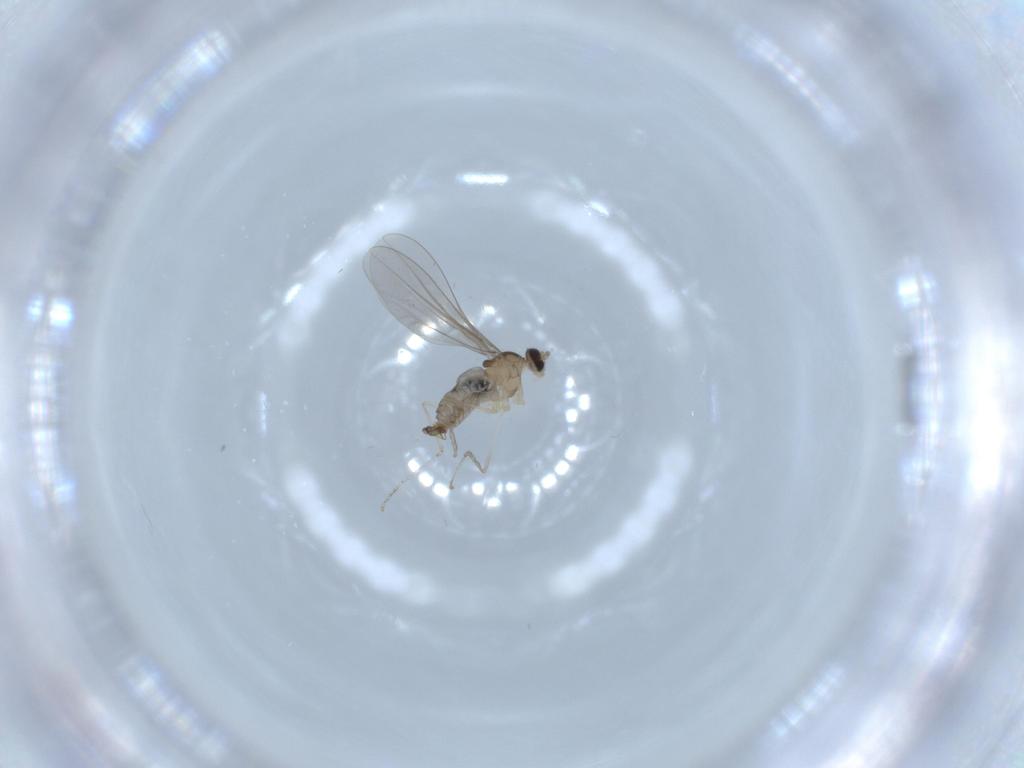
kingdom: Animalia
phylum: Arthropoda
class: Insecta
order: Diptera
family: Cecidomyiidae
